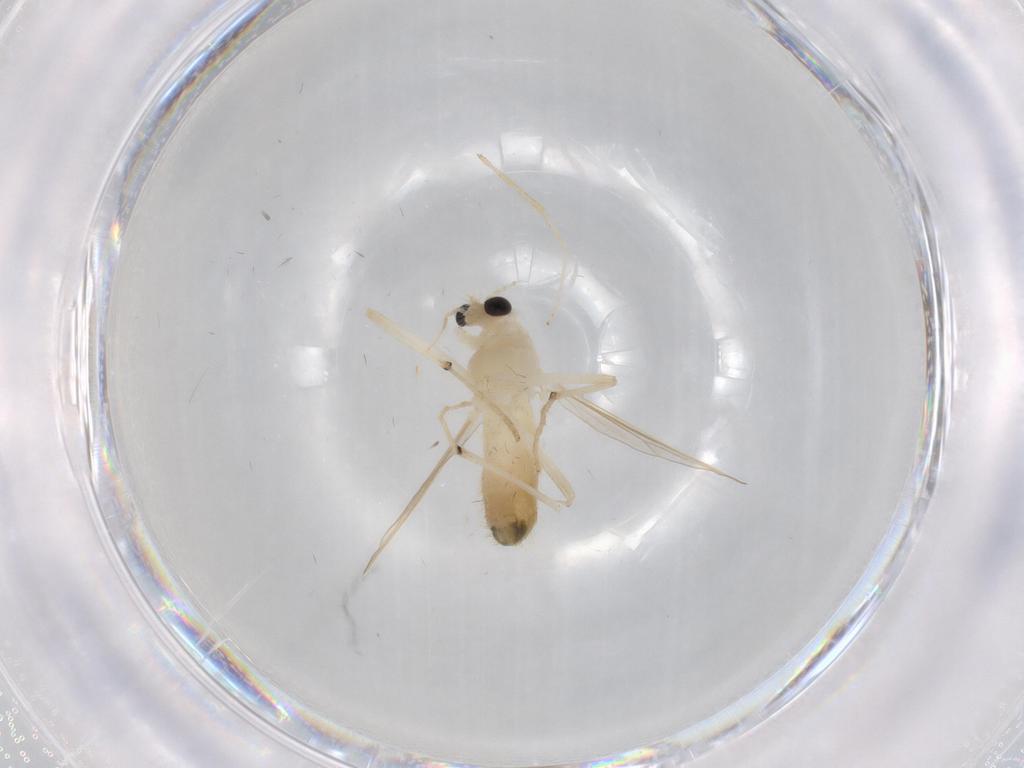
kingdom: Animalia
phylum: Arthropoda
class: Insecta
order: Diptera
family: Chironomidae
